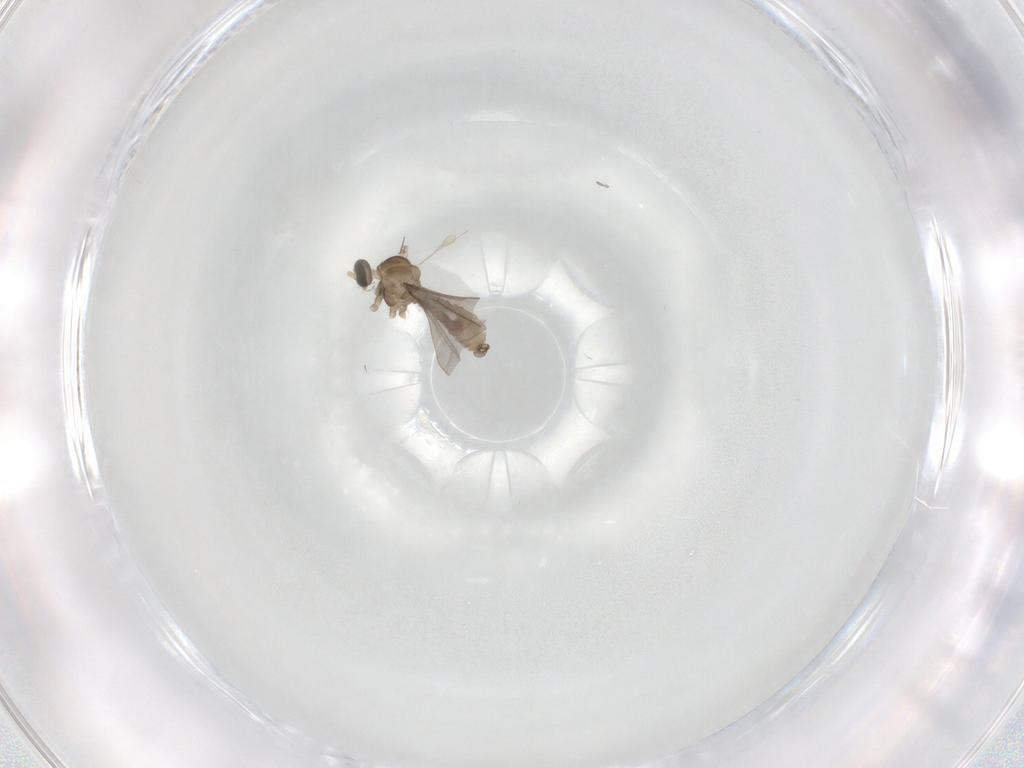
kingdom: Animalia
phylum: Arthropoda
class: Insecta
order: Diptera
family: Cecidomyiidae
